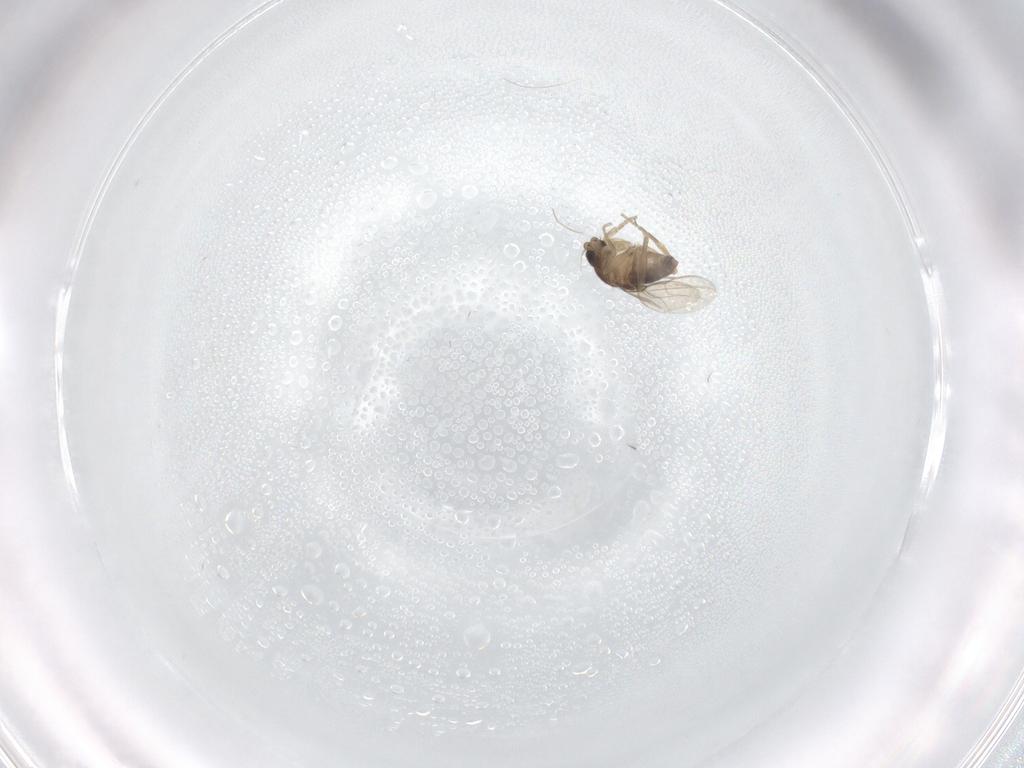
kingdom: Animalia
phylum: Arthropoda
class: Insecta
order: Diptera
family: Phoridae
